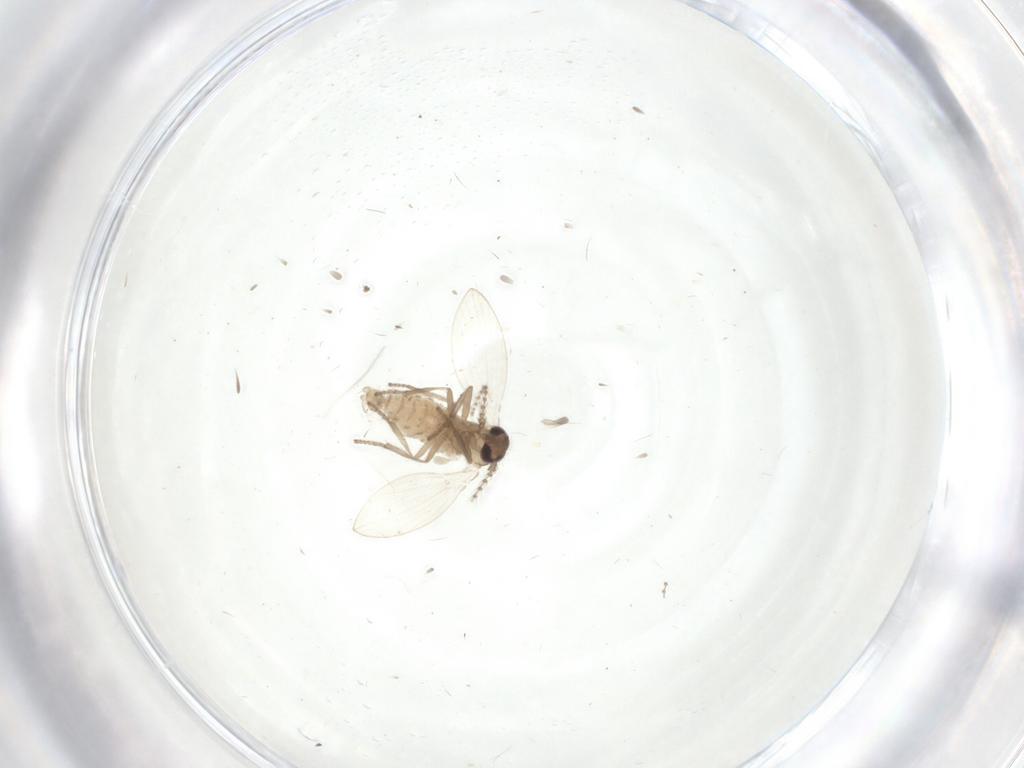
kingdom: Animalia
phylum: Arthropoda
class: Insecta
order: Diptera
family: Psychodidae
